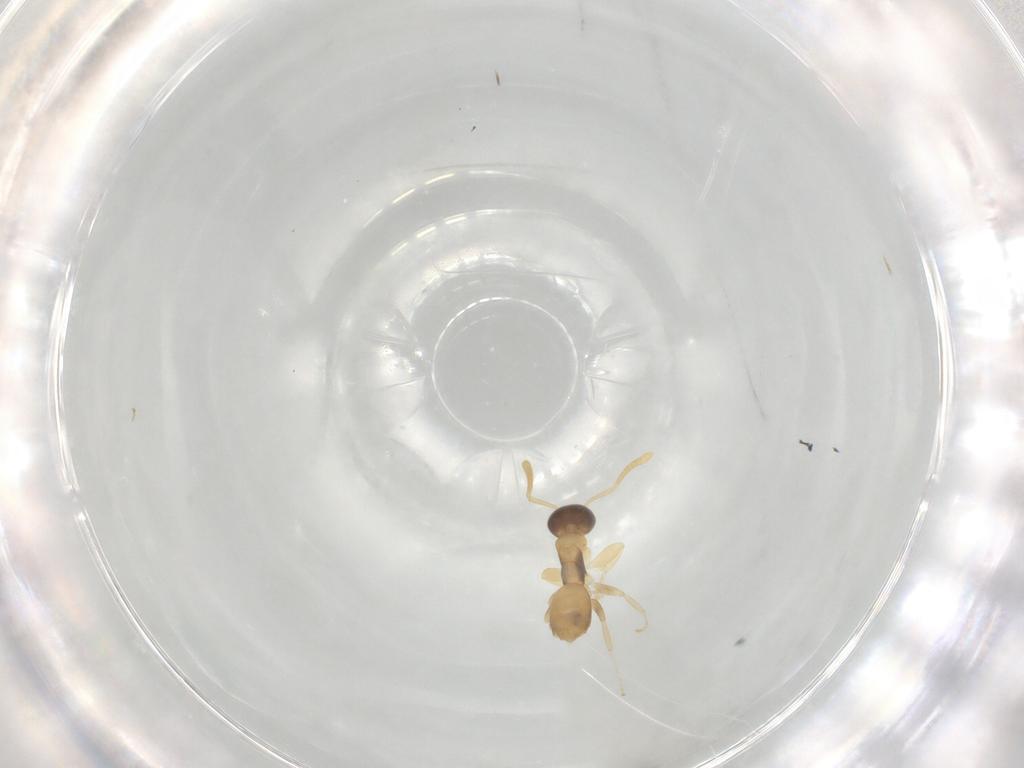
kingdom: Animalia
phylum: Arthropoda
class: Insecta
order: Hymenoptera
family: Formicidae
